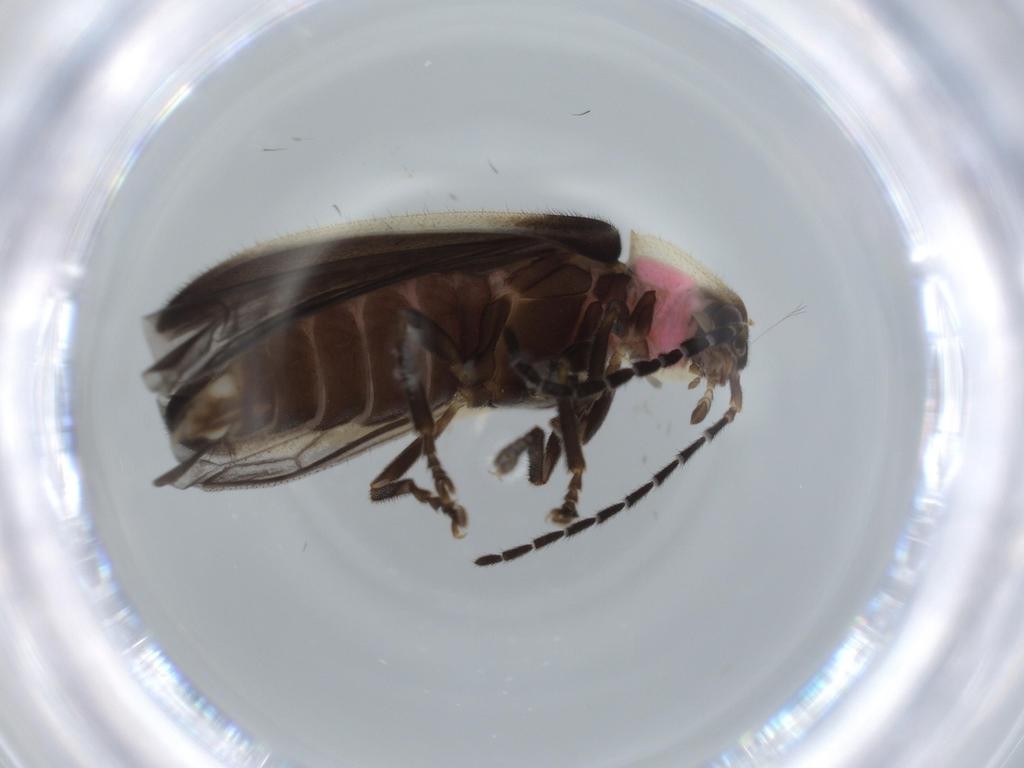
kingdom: Animalia
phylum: Arthropoda
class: Insecta
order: Coleoptera
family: Lampyridae
